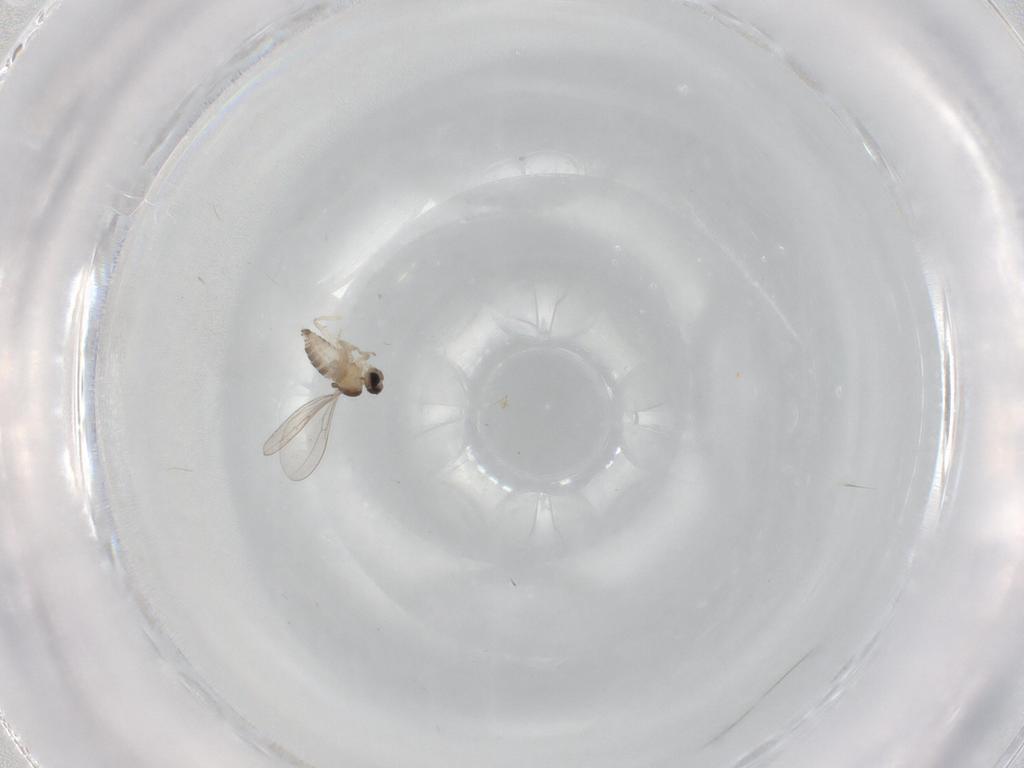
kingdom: Animalia
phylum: Arthropoda
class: Insecta
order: Diptera
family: Cecidomyiidae
